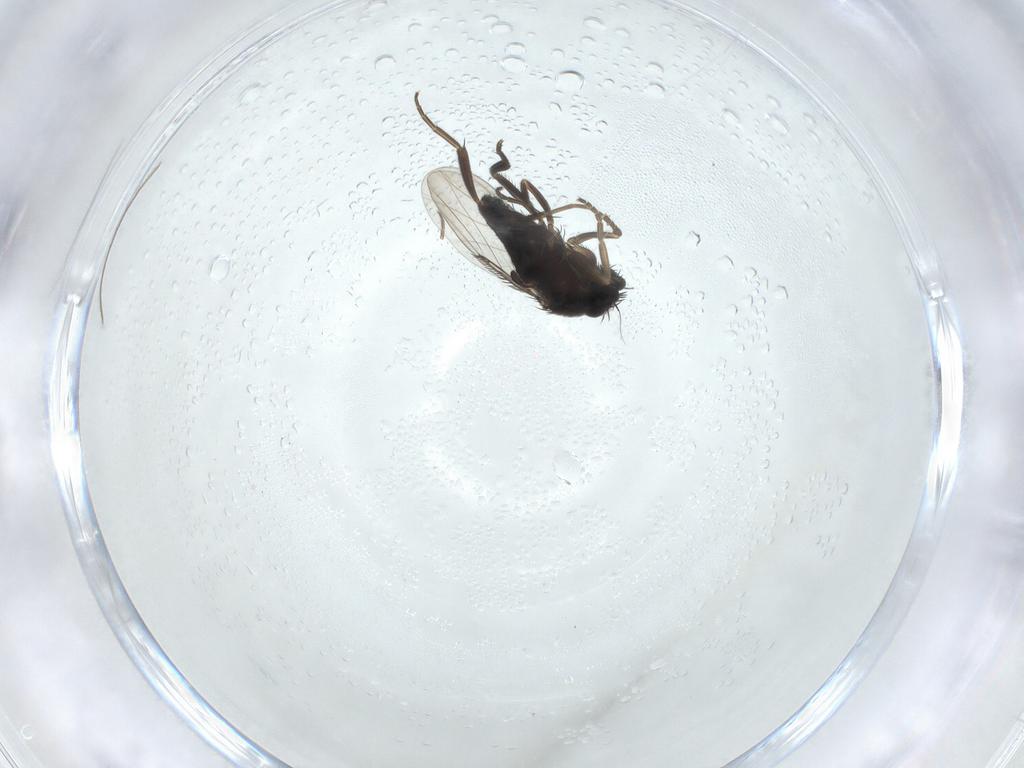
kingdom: Animalia
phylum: Arthropoda
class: Insecta
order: Diptera
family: Phoridae
